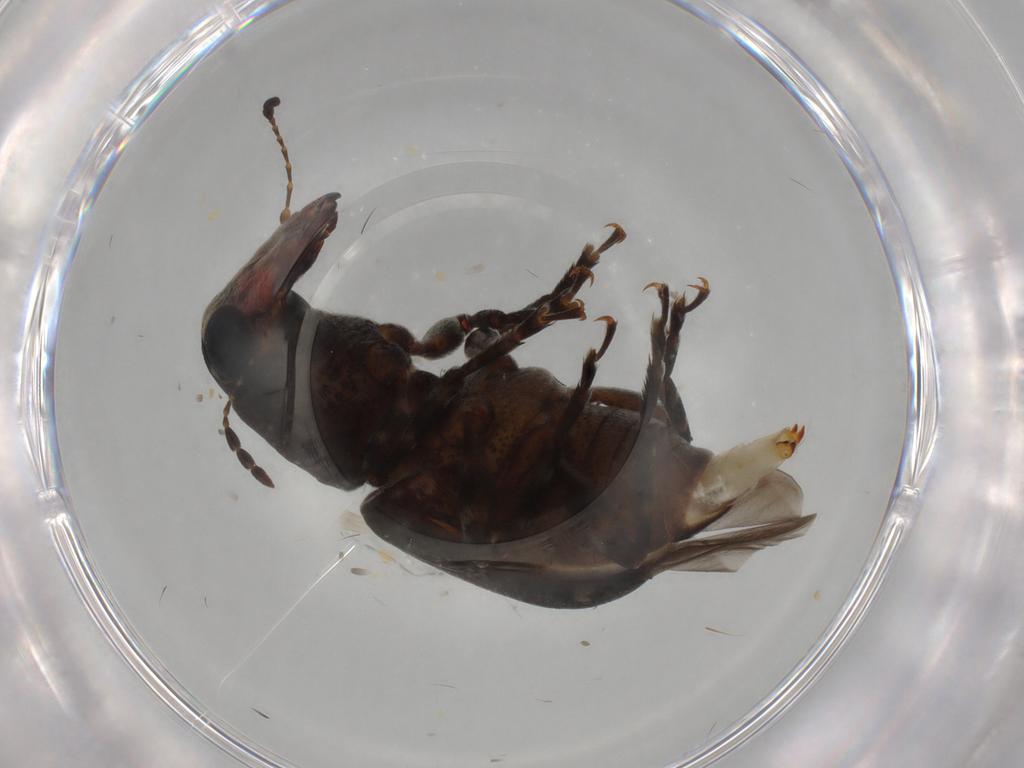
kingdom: Animalia
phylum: Arthropoda
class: Insecta
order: Coleoptera
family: Anthribidae
